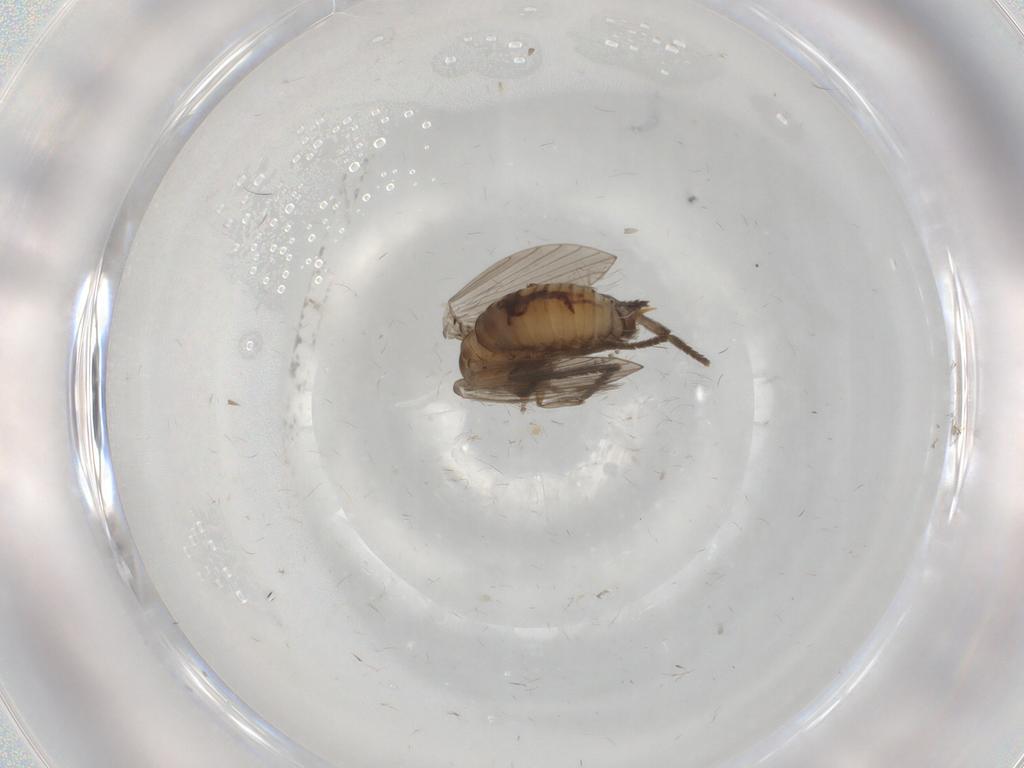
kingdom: Animalia
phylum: Arthropoda
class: Insecta
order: Diptera
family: Psychodidae
